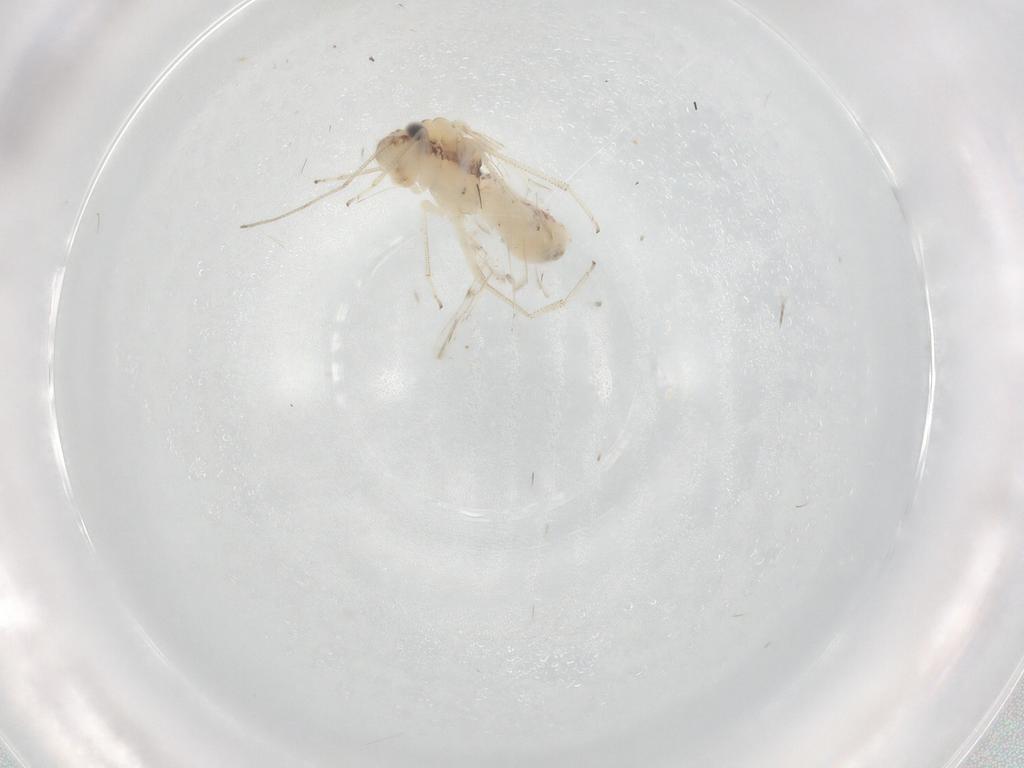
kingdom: Animalia
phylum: Arthropoda
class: Insecta
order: Psocodea
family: Ectopsocidae
